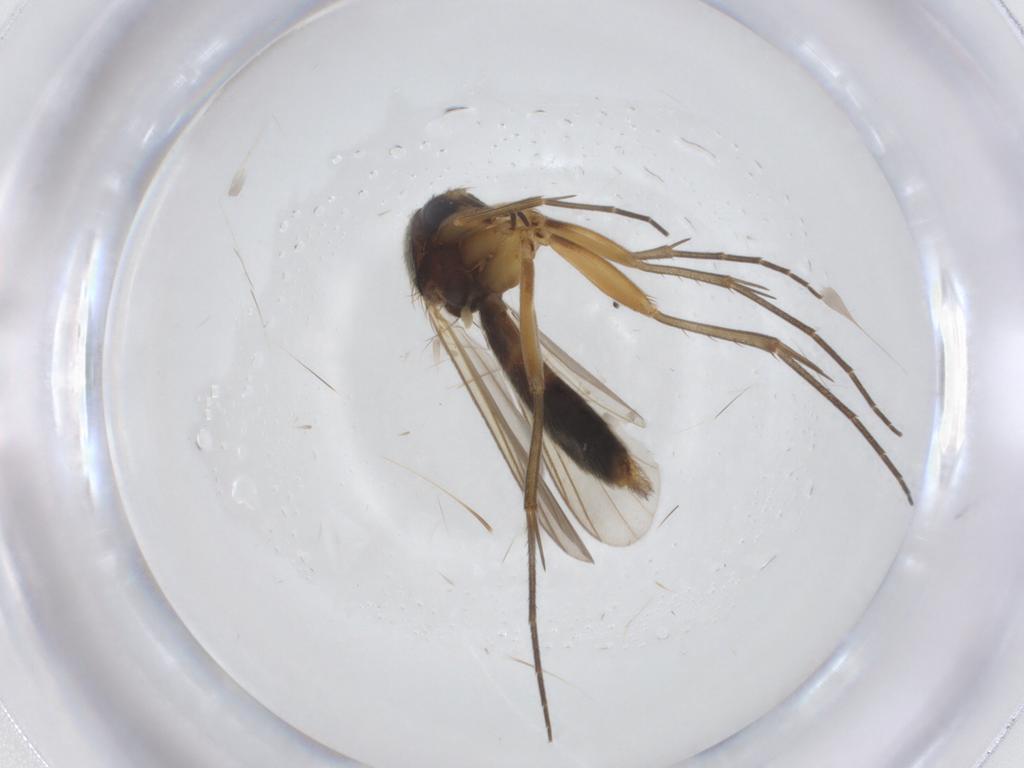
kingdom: Animalia
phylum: Arthropoda
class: Insecta
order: Diptera
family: Chironomidae
